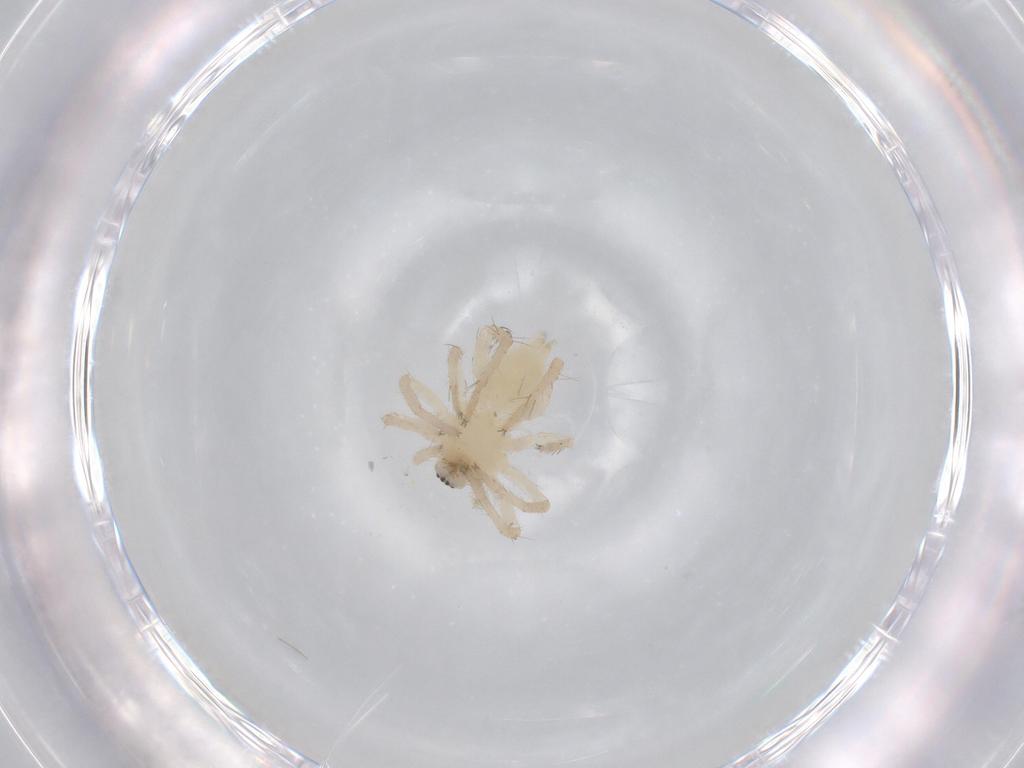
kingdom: Animalia
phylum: Arthropoda
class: Arachnida
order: Araneae
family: Anyphaenidae
